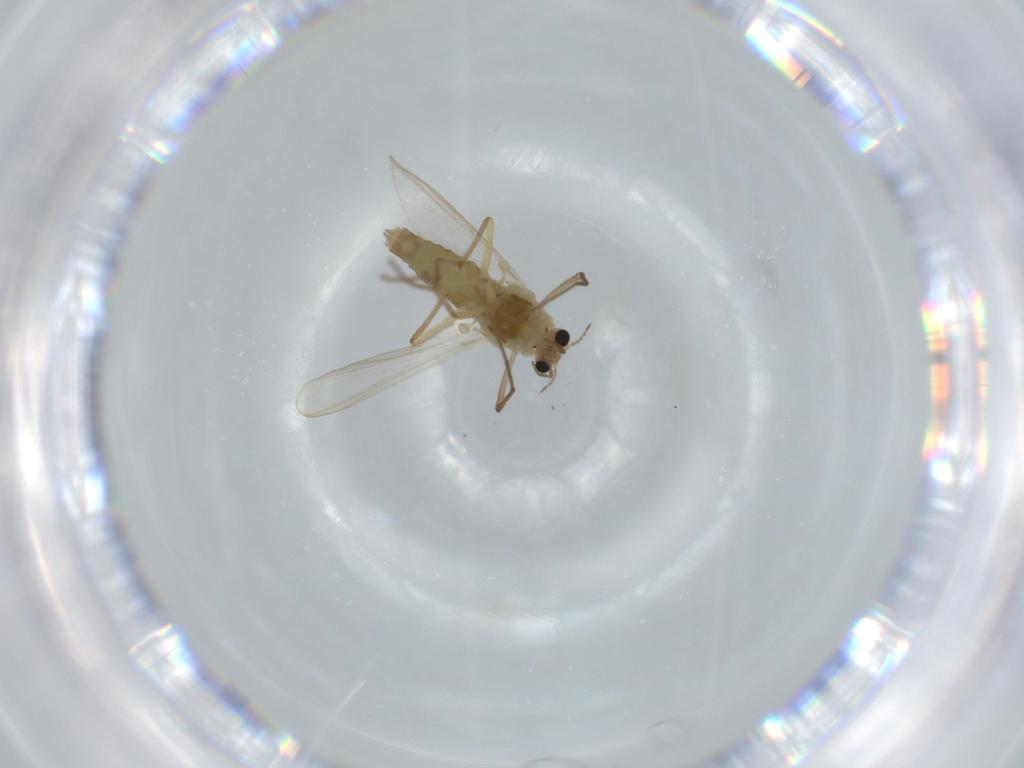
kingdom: Animalia
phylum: Arthropoda
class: Insecta
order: Diptera
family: Chironomidae
